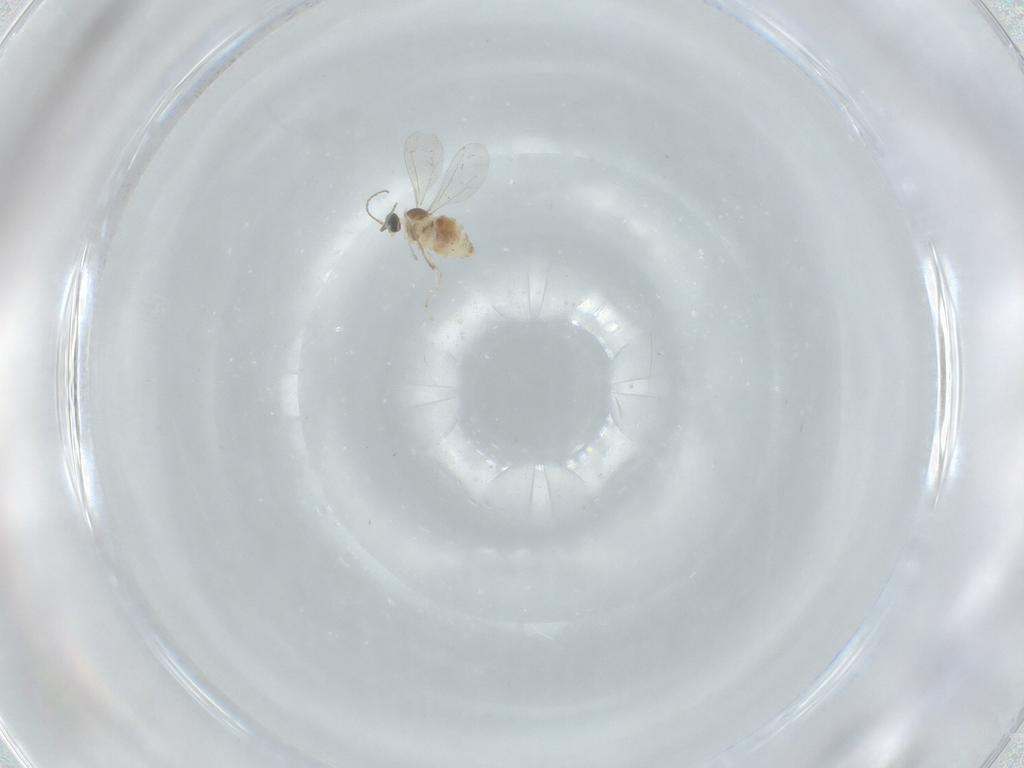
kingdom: Animalia
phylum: Arthropoda
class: Insecta
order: Diptera
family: Cecidomyiidae
